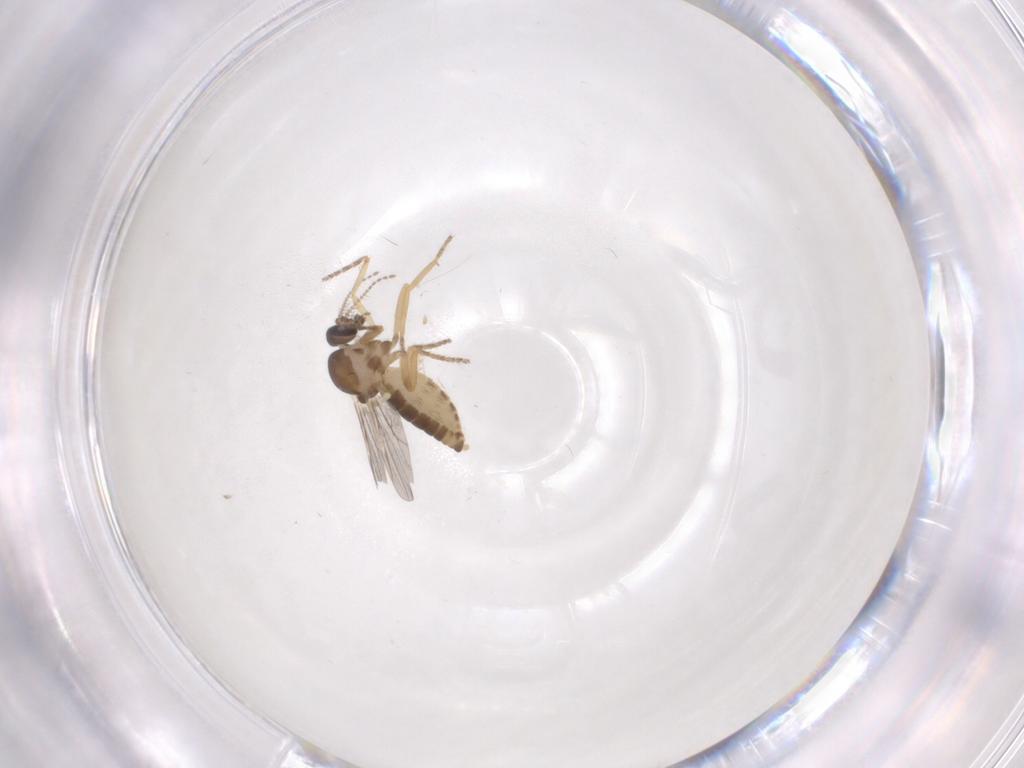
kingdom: Animalia
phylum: Arthropoda
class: Insecta
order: Diptera
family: Ceratopogonidae
